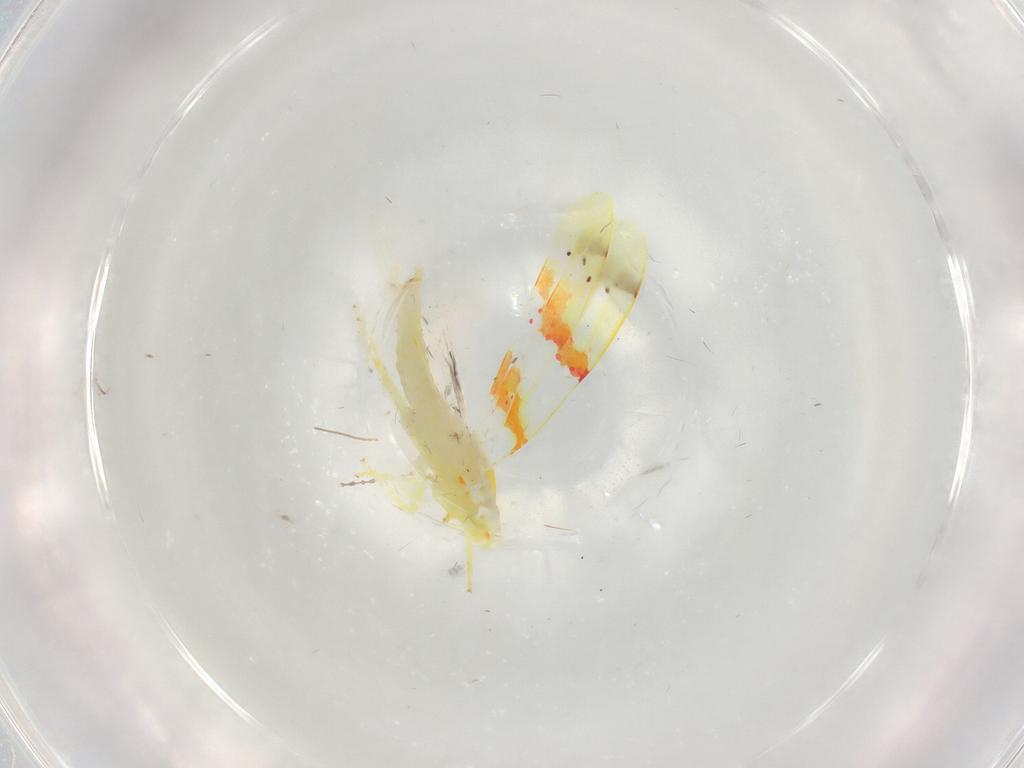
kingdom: Animalia
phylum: Arthropoda
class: Insecta
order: Hemiptera
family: Cicadellidae
